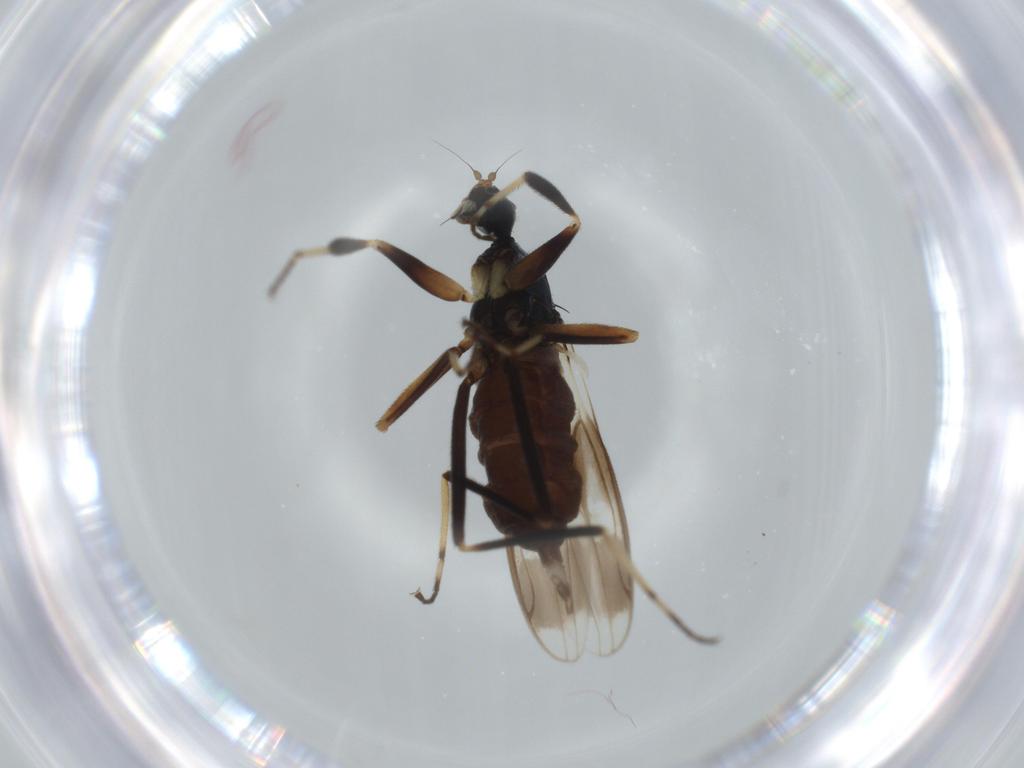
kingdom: Animalia
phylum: Arthropoda
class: Insecta
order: Diptera
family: Hybotidae
